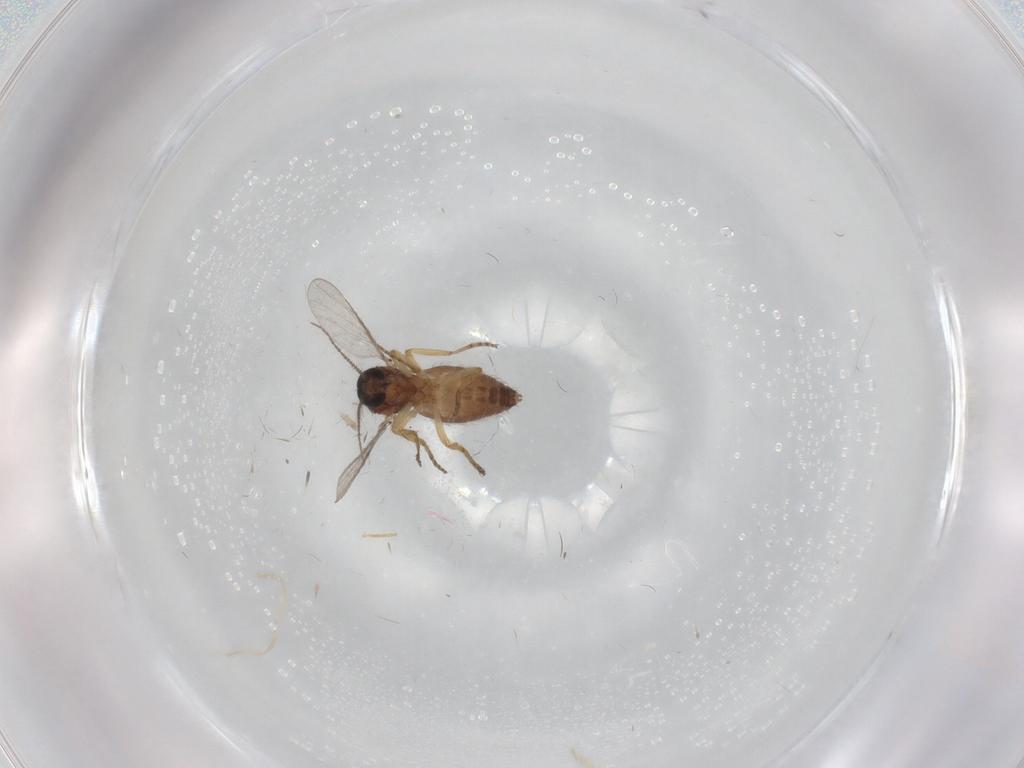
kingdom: Animalia
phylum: Arthropoda
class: Insecta
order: Diptera
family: Ceratopogonidae
